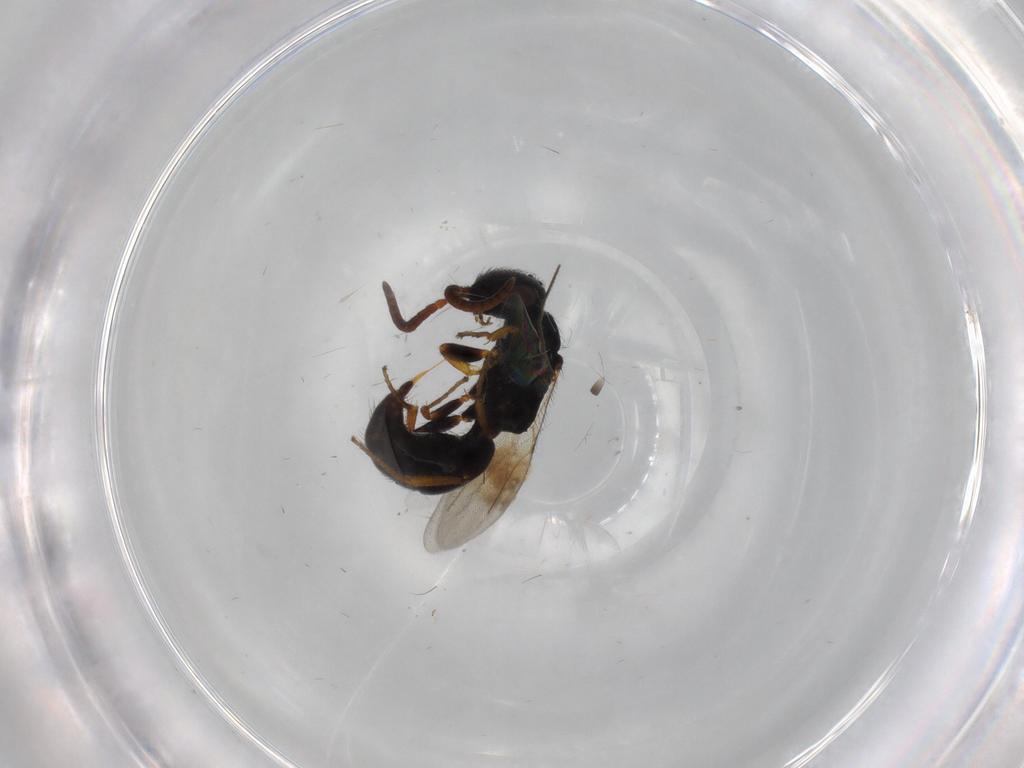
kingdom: Animalia
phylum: Arthropoda
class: Insecta
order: Hymenoptera
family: Bethylidae
